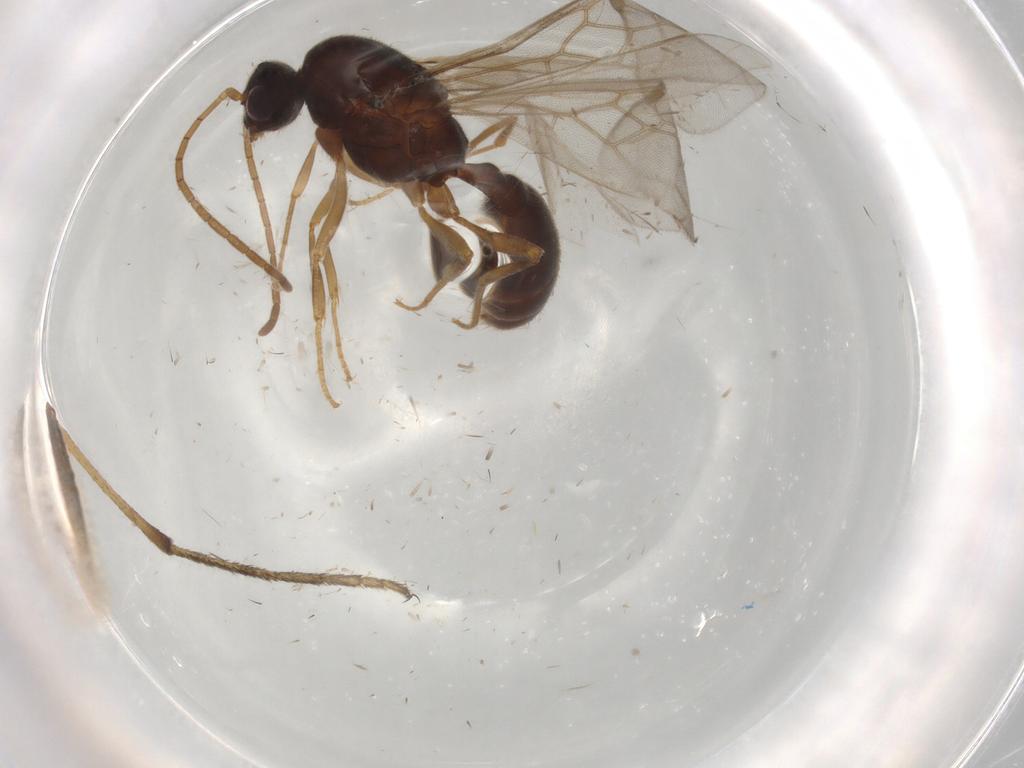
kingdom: Animalia
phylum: Arthropoda
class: Insecta
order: Hymenoptera
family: Formicidae
